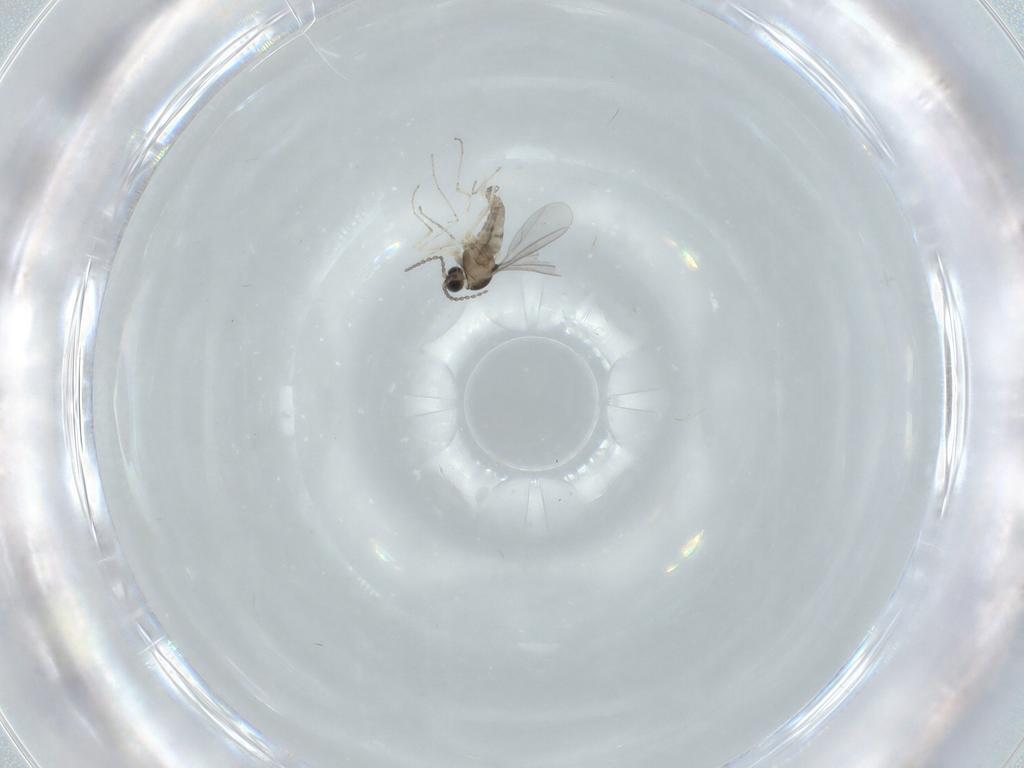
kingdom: Animalia
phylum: Arthropoda
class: Insecta
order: Diptera
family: Cecidomyiidae
